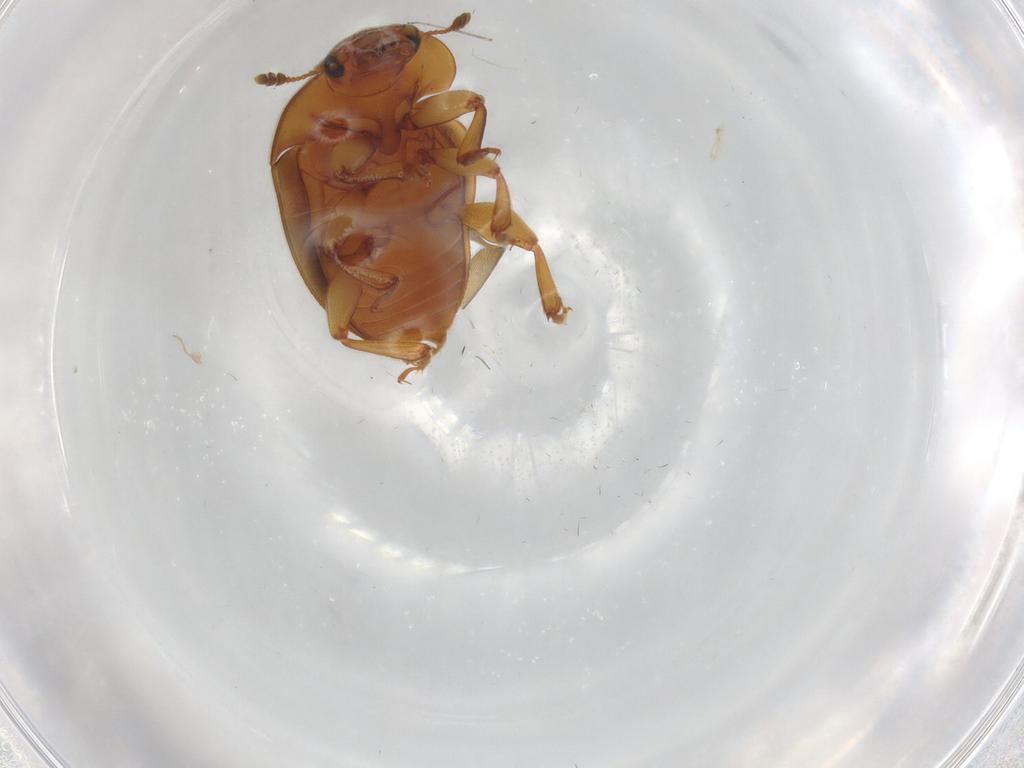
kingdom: Animalia
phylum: Arthropoda
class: Insecta
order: Coleoptera
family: Nitidulidae
